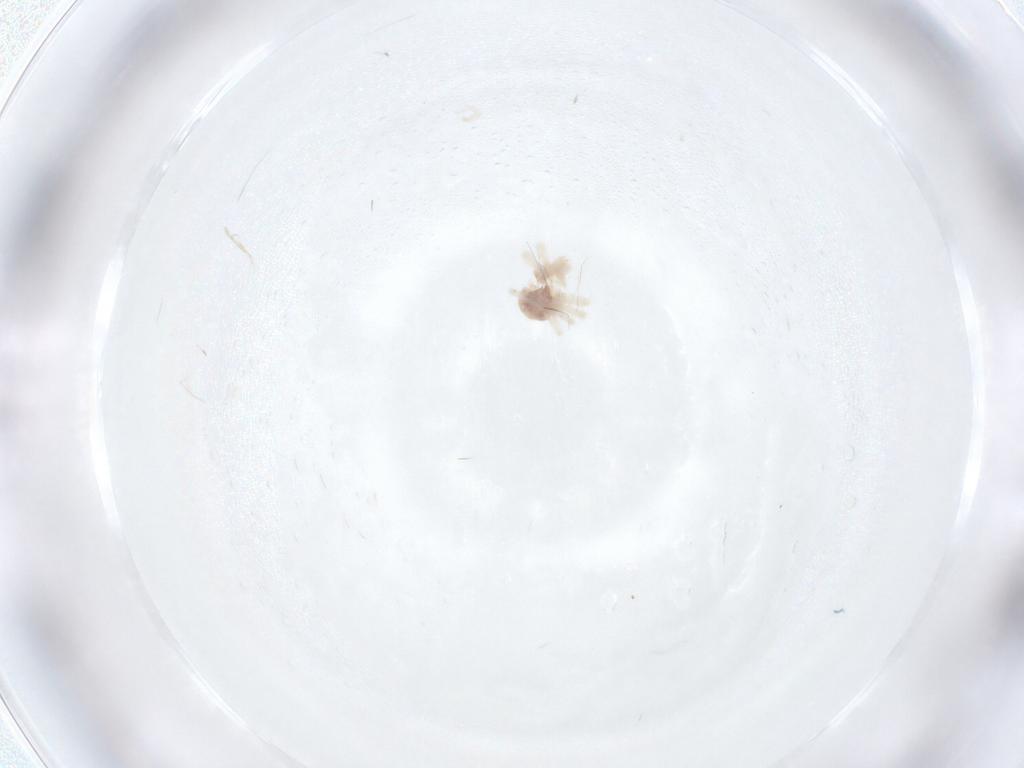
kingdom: Animalia
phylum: Arthropoda
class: Arachnida
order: Trombidiformes
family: Anystidae
